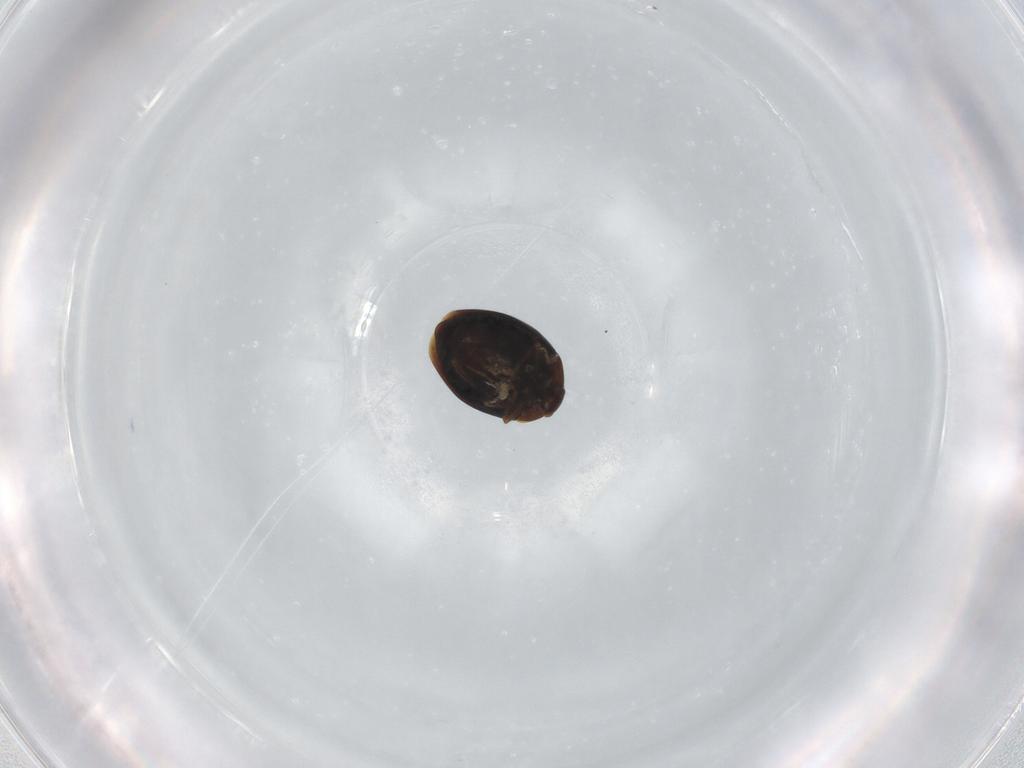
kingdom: Animalia
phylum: Arthropoda
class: Insecta
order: Coleoptera
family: Corylophidae
